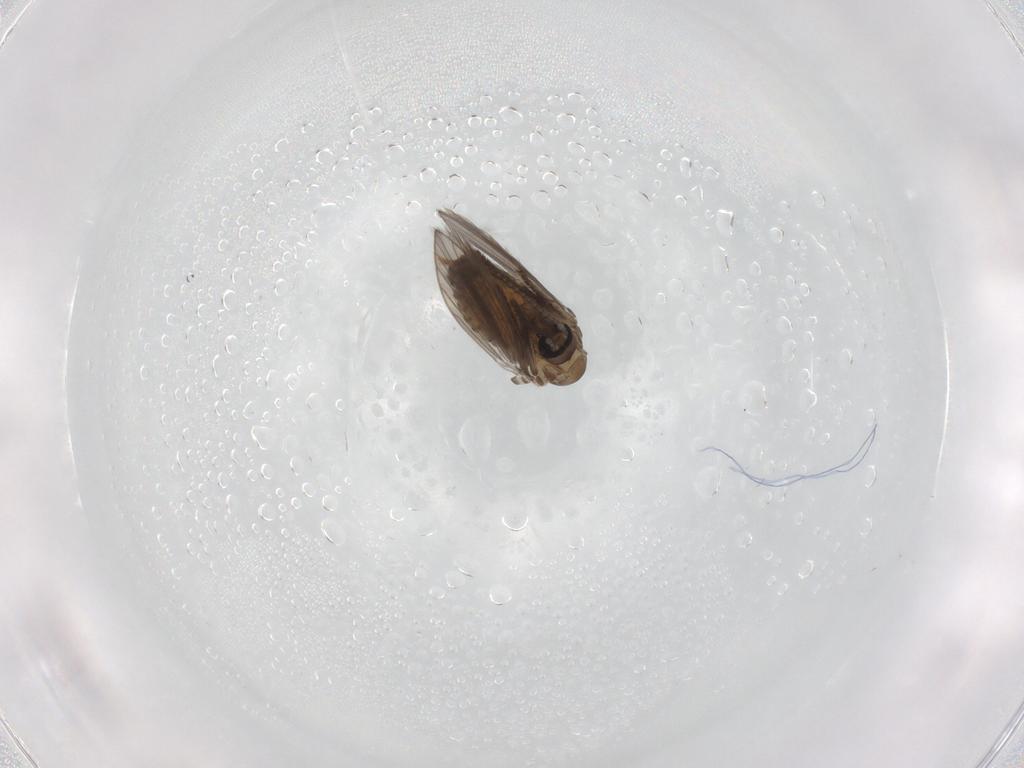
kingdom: Animalia
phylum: Arthropoda
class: Insecta
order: Diptera
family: Psychodidae
